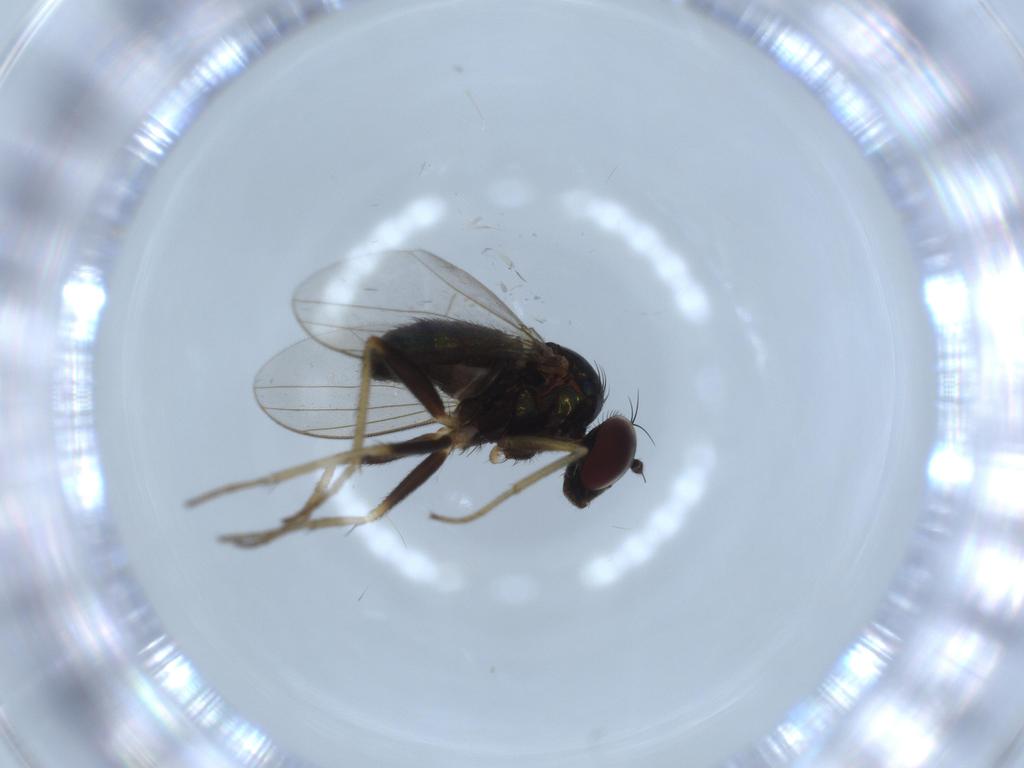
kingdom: Animalia
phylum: Arthropoda
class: Insecta
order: Diptera
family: Dolichopodidae
